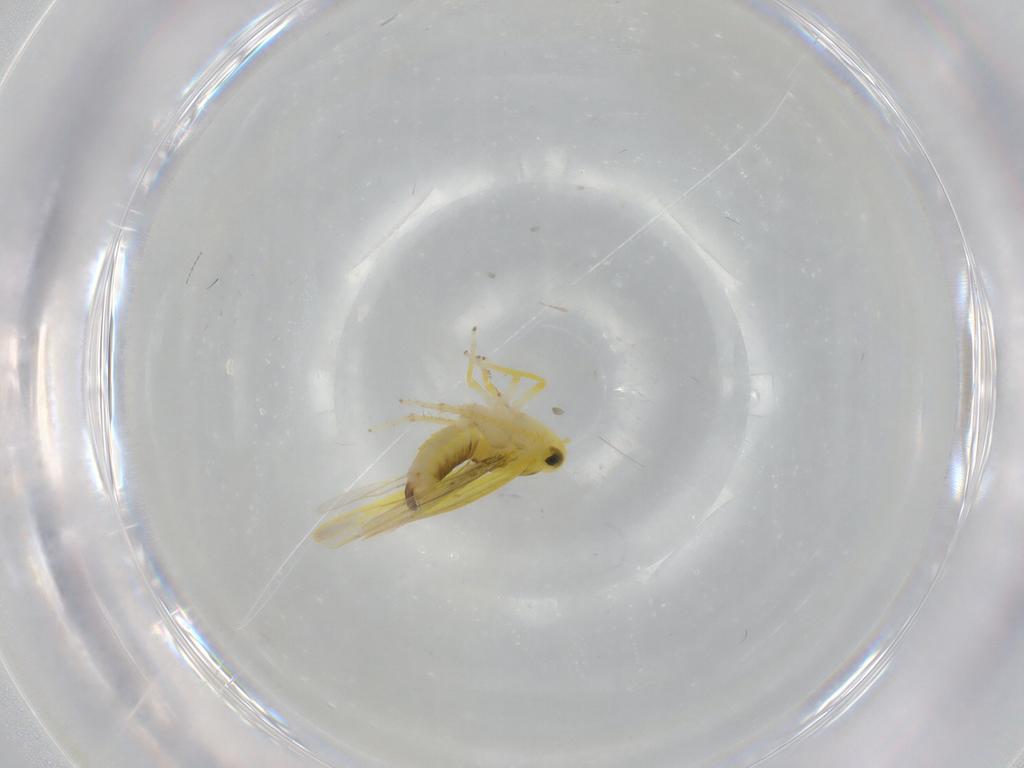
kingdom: Animalia
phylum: Arthropoda
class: Insecta
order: Hemiptera
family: Cicadellidae
